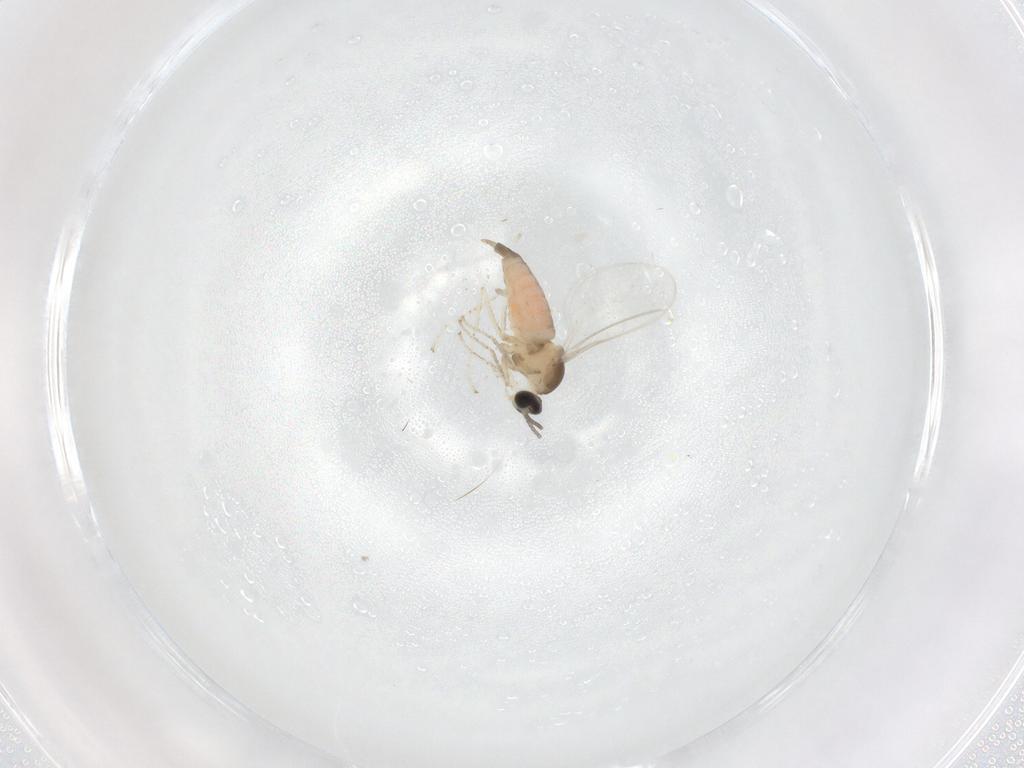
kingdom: Animalia
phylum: Arthropoda
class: Insecta
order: Diptera
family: Cecidomyiidae
